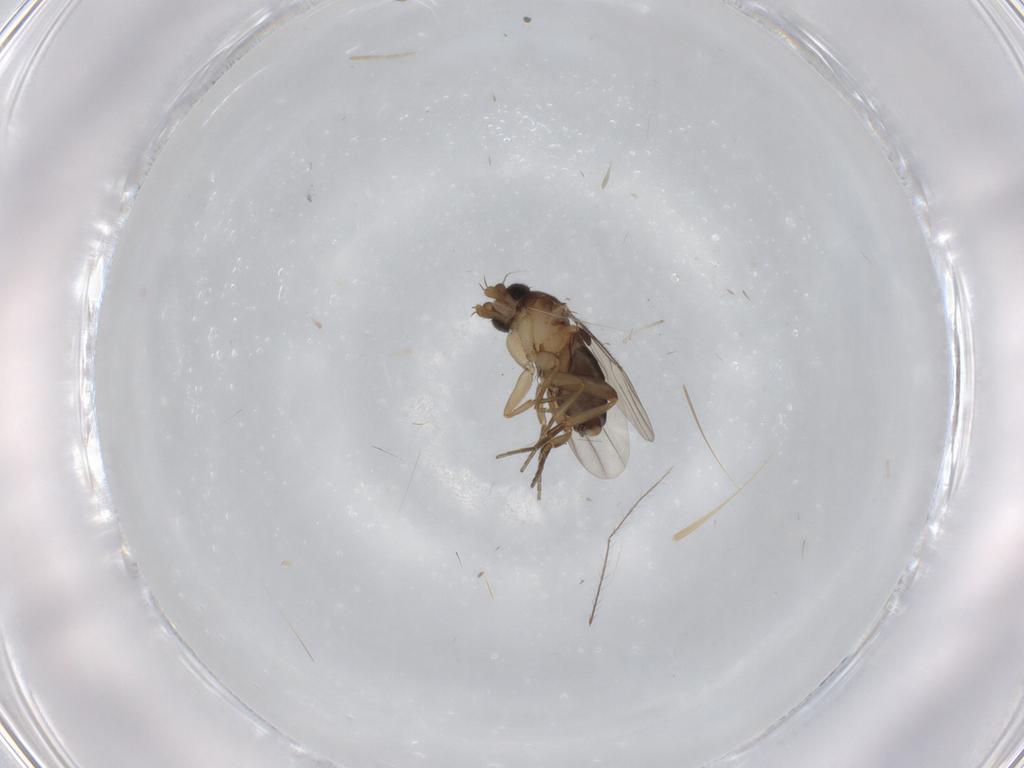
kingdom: Animalia
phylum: Arthropoda
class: Insecta
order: Diptera
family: Phoridae
